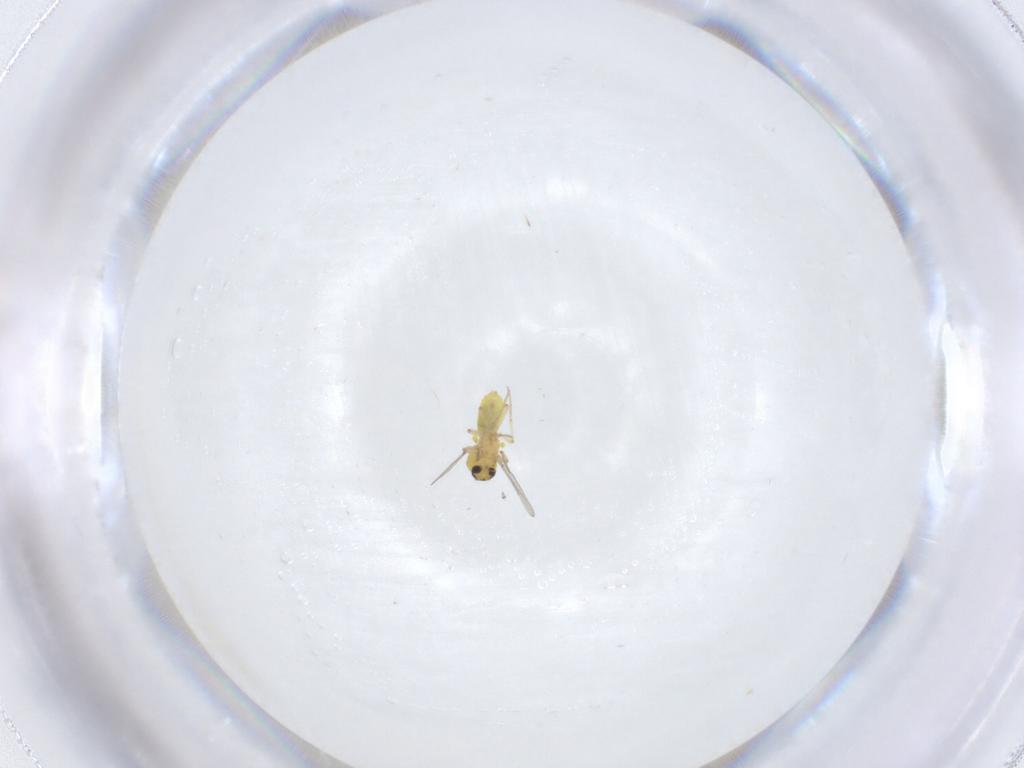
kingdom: Animalia
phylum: Arthropoda
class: Insecta
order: Diptera
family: Ceratopogonidae
